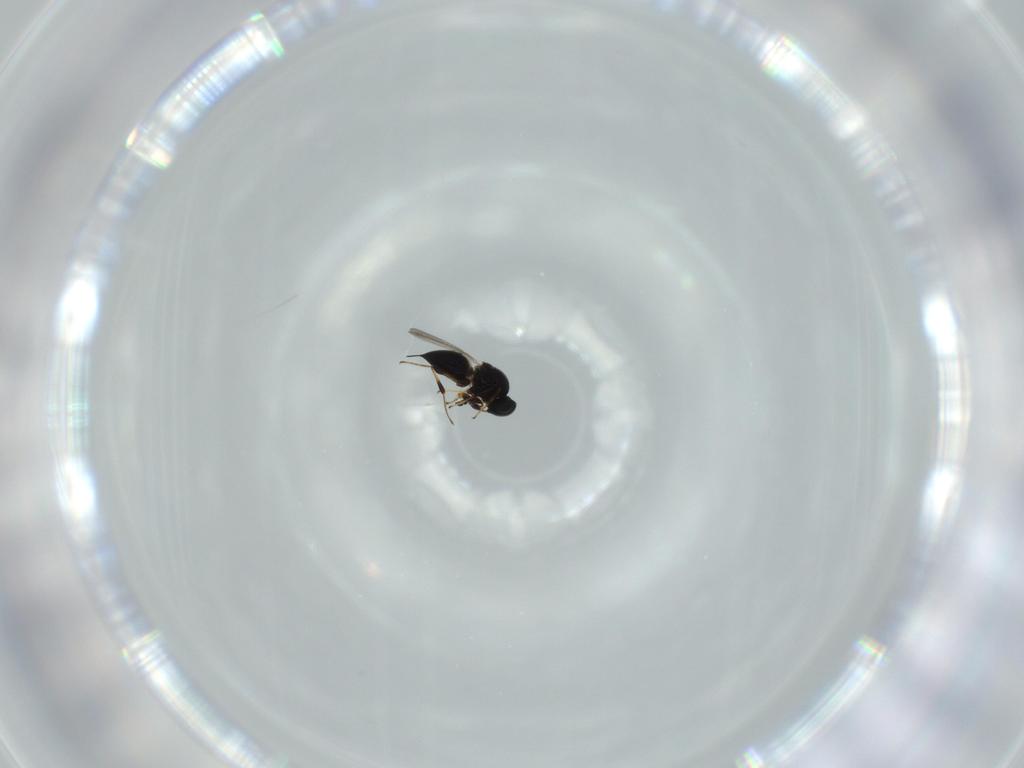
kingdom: Animalia
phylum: Arthropoda
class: Insecta
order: Hymenoptera
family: Platygastridae
